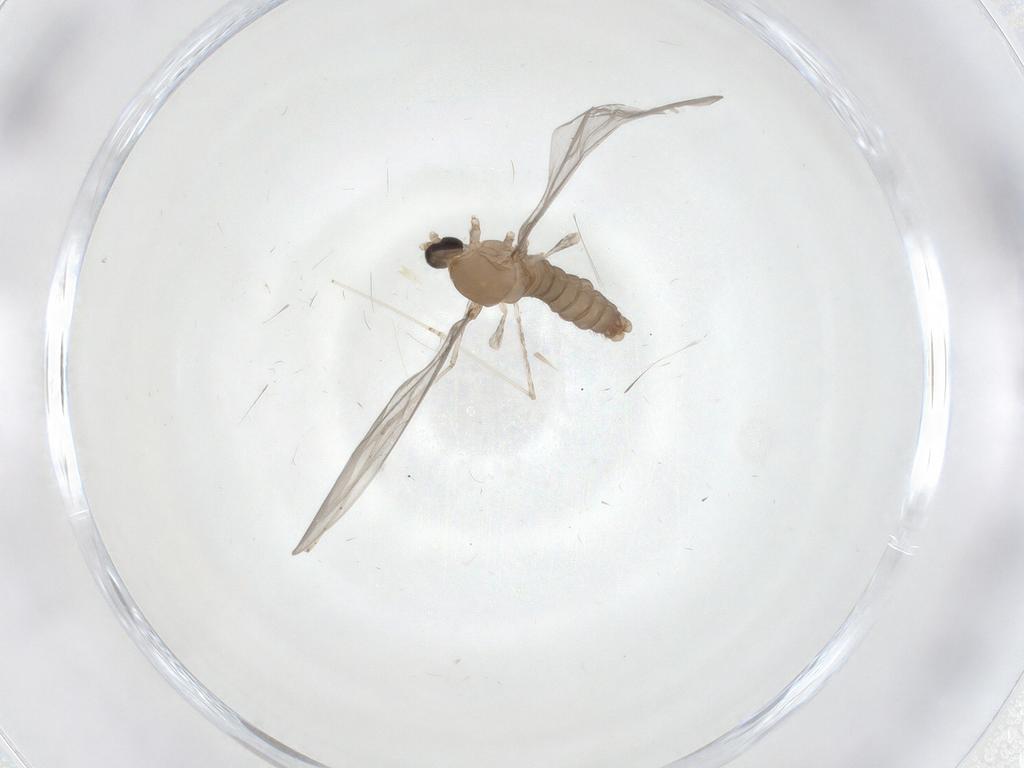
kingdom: Animalia
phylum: Arthropoda
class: Insecta
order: Diptera
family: Cecidomyiidae
